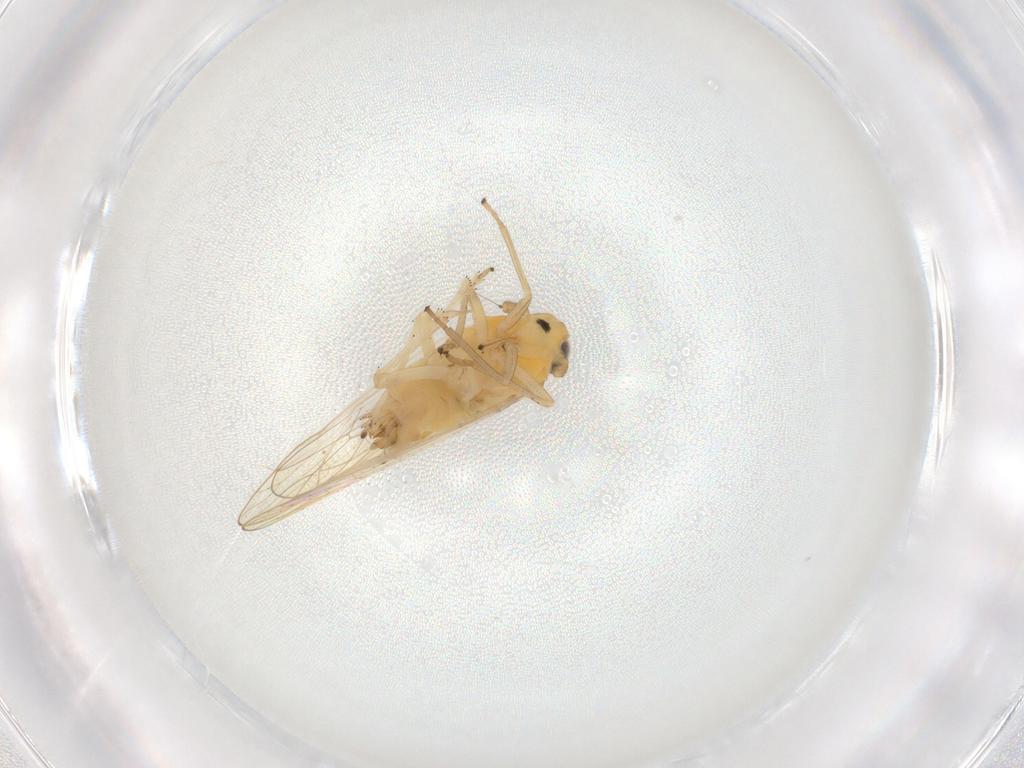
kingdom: Animalia
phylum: Arthropoda
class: Insecta
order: Hemiptera
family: Delphacidae
